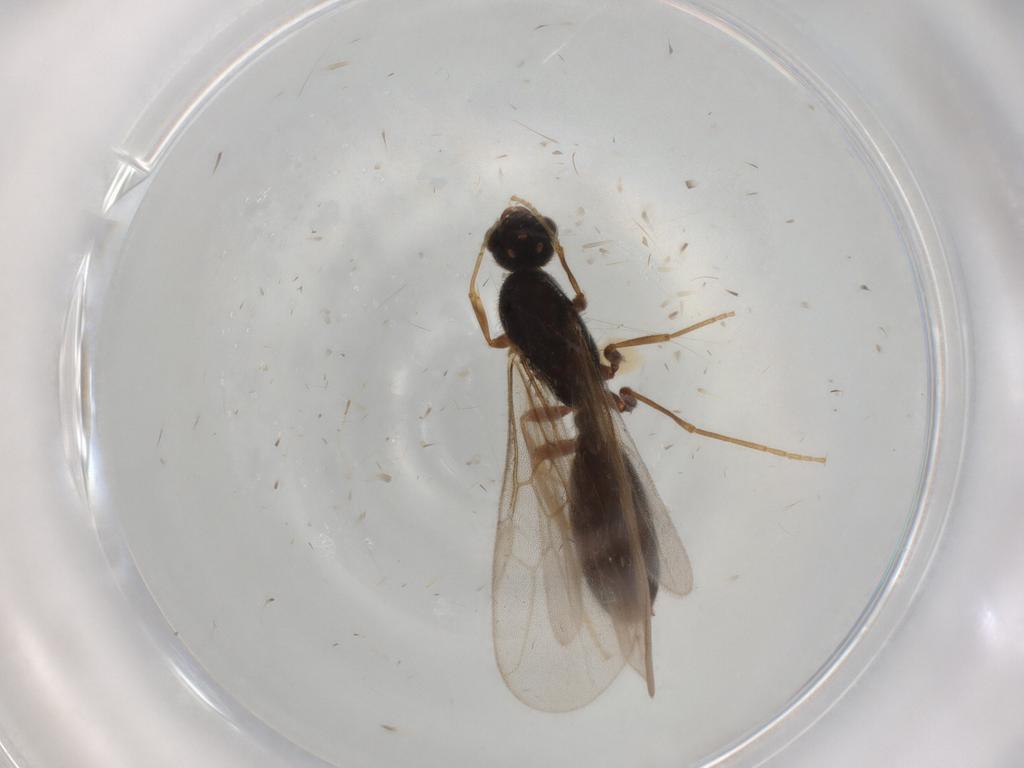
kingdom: Animalia
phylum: Arthropoda
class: Insecta
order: Hymenoptera
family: Formicidae
